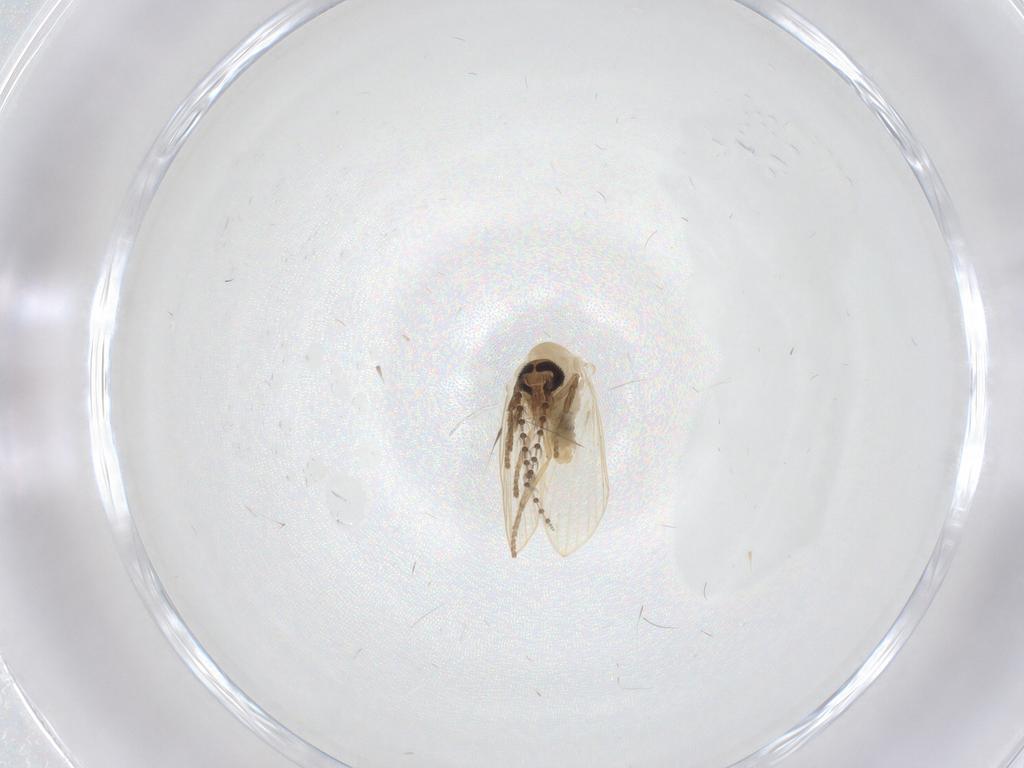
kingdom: Animalia
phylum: Arthropoda
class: Insecta
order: Diptera
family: Psychodidae
